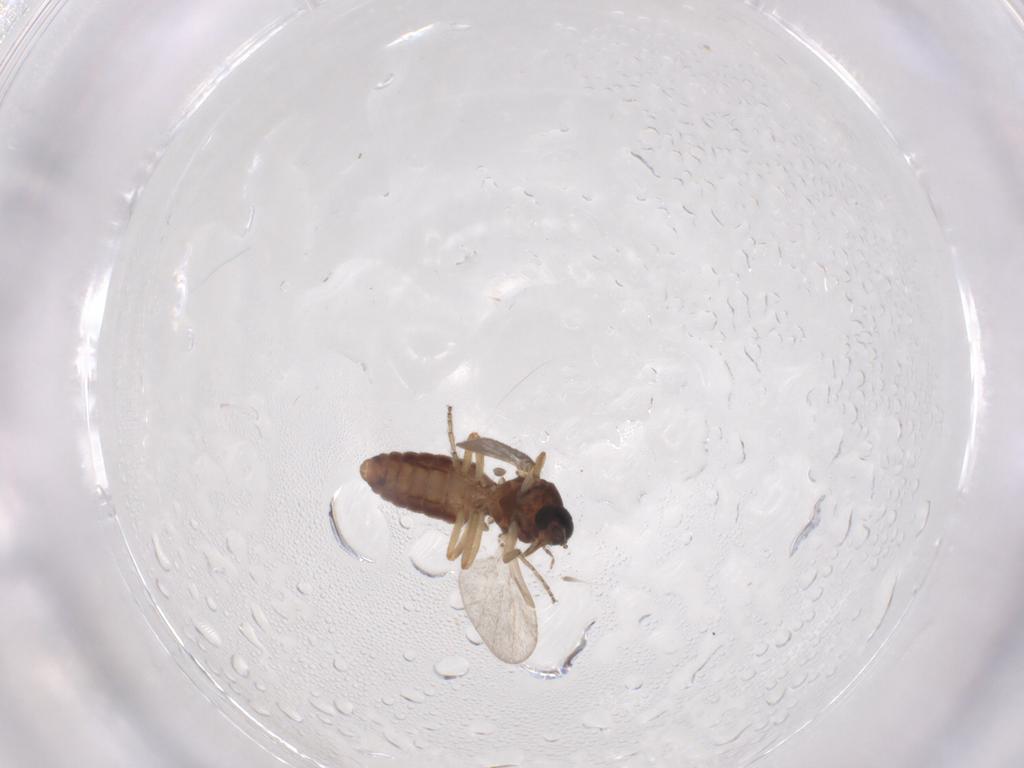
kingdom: Animalia
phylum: Arthropoda
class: Insecta
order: Diptera
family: Ceratopogonidae
